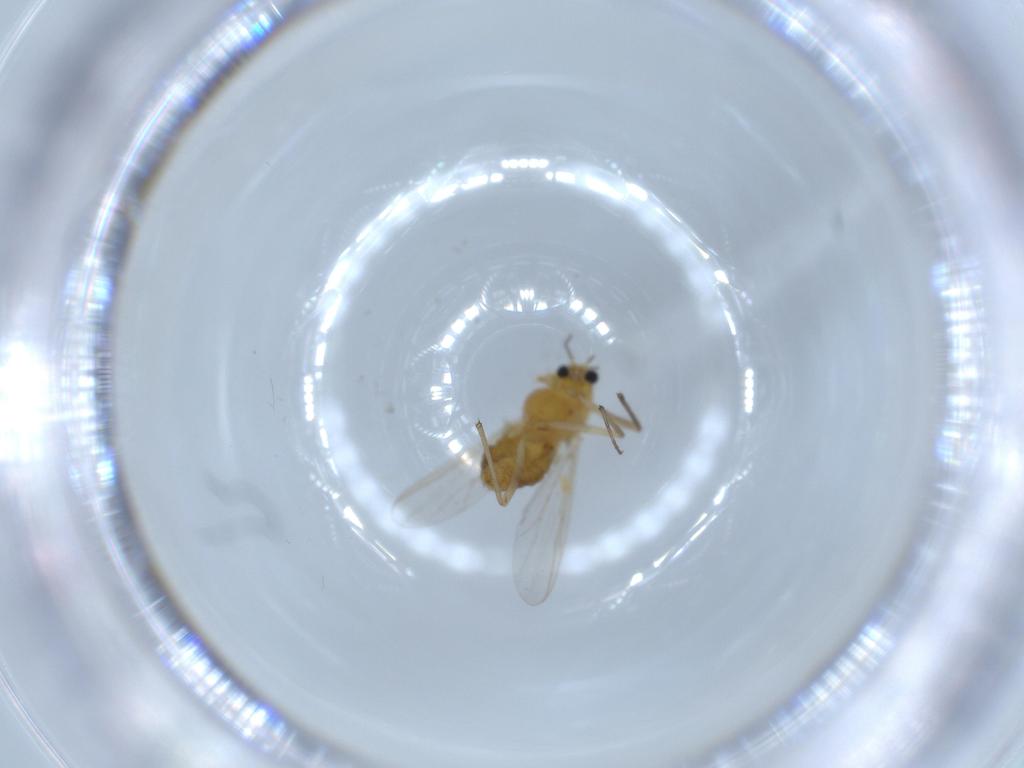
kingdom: Animalia
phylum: Arthropoda
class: Insecta
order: Diptera
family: Chironomidae
